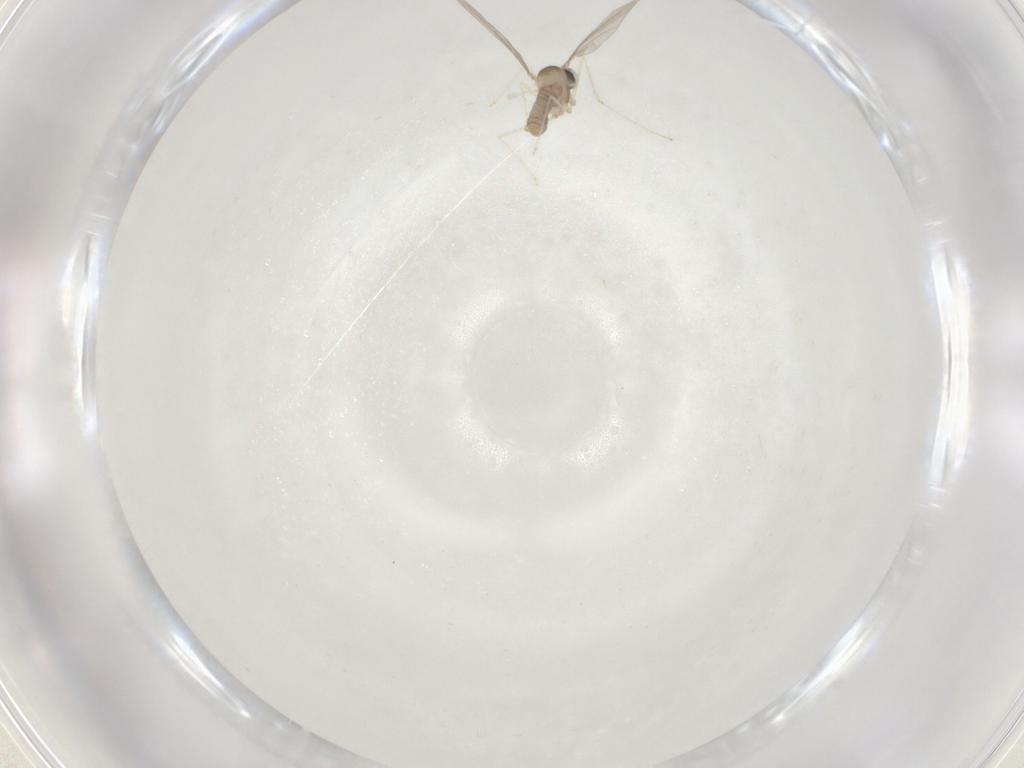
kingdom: Animalia
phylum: Arthropoda
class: Insecta
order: Diptera
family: Cecidomyiidae
